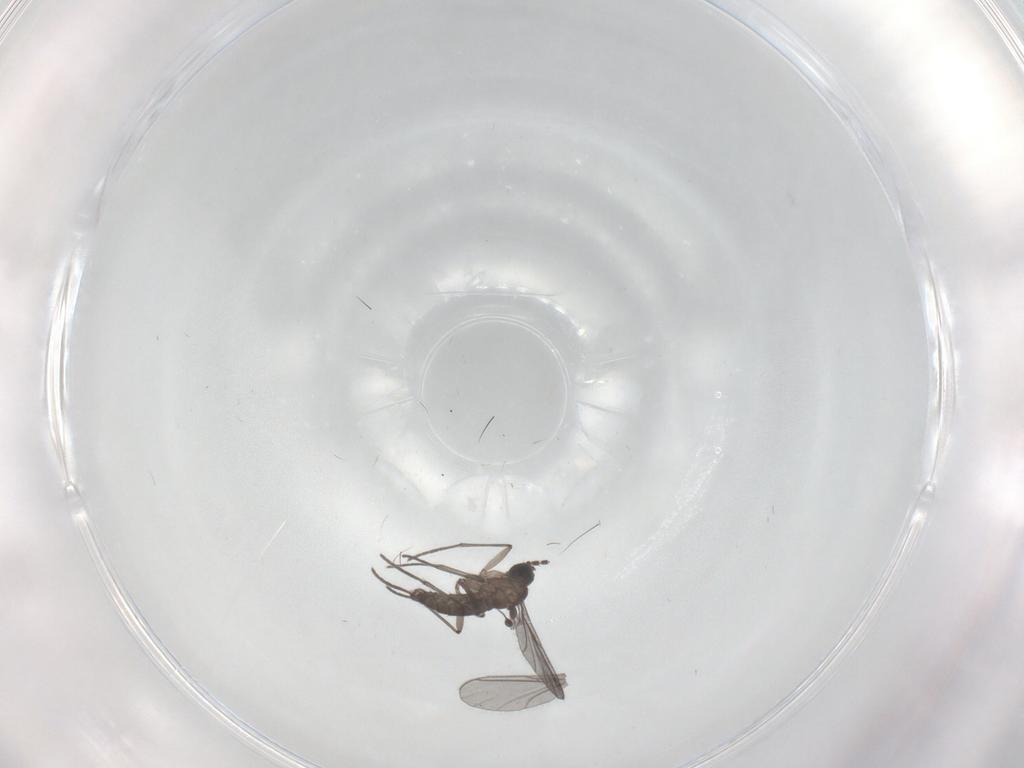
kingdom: Animalia
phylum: Arthropoda
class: Insecta
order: Diptera
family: Cecidomyiidae
